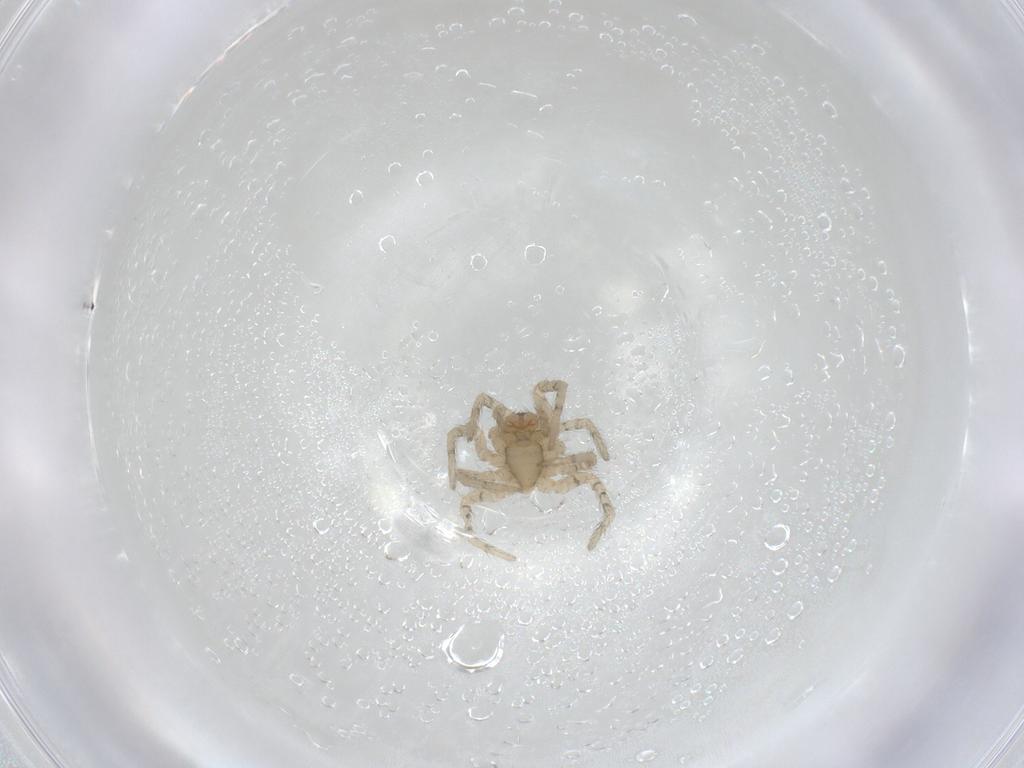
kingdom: Animalia
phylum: Arthropoda
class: Arachnida
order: Araneae
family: Amaurobiidae
